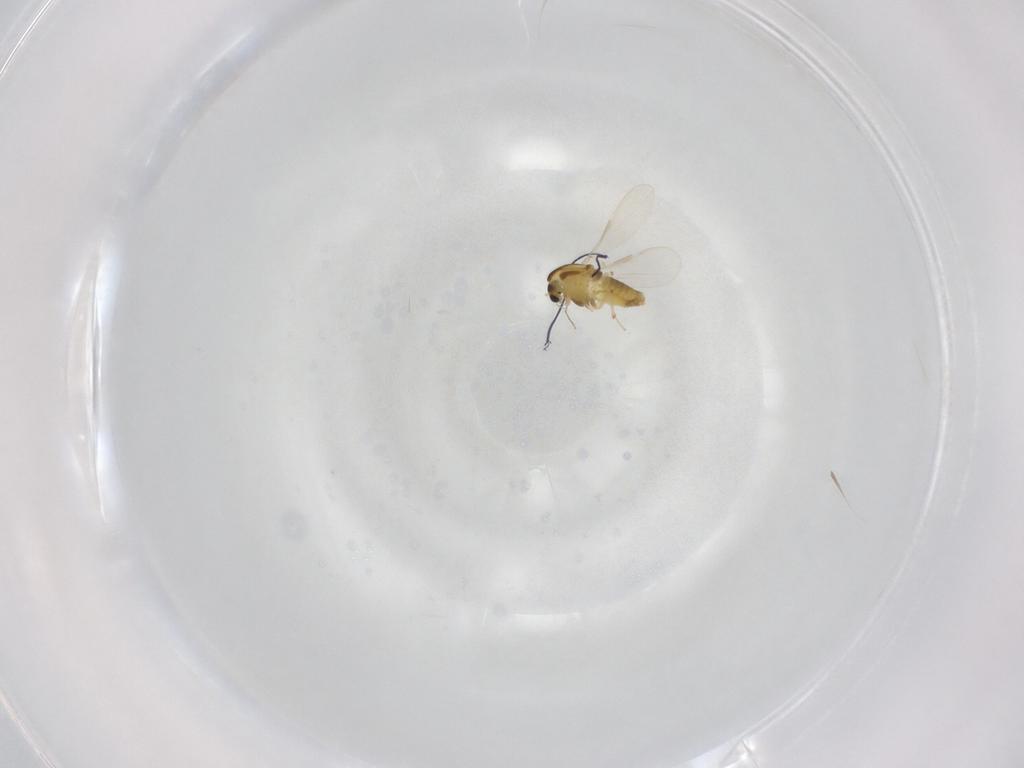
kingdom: Animalia
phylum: Arthropoda
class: Insecta
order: Diptera
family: Chironomidae
